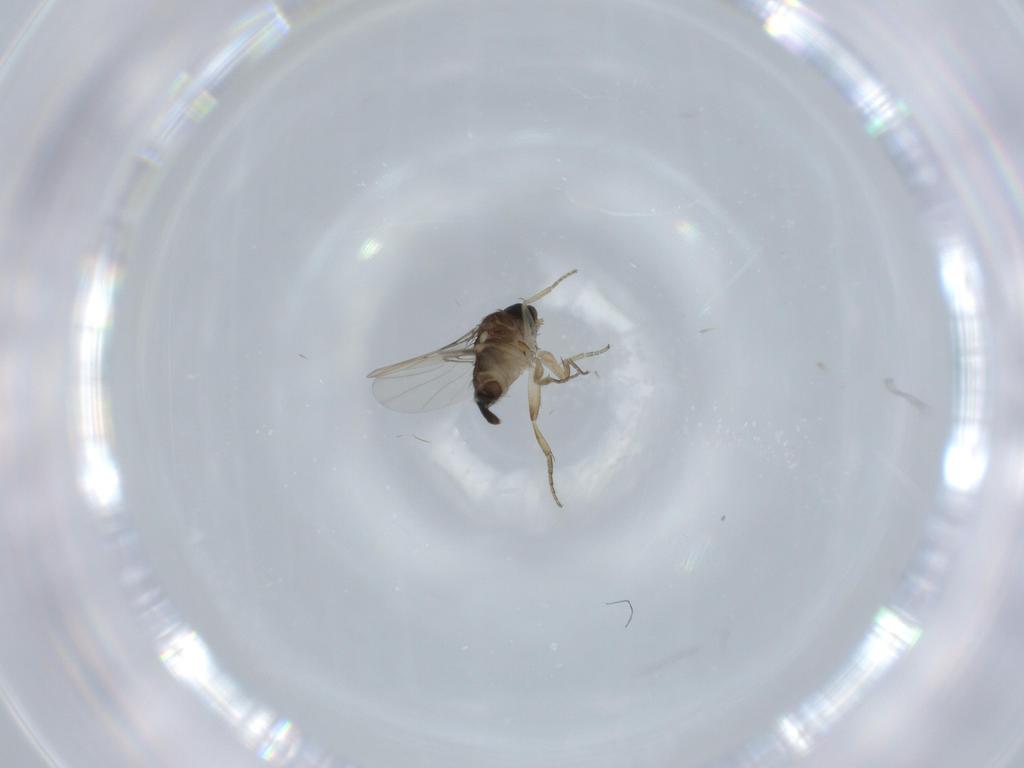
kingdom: Animalia
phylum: Arthropoda
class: Insecta
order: Diptera
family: Phoridae
